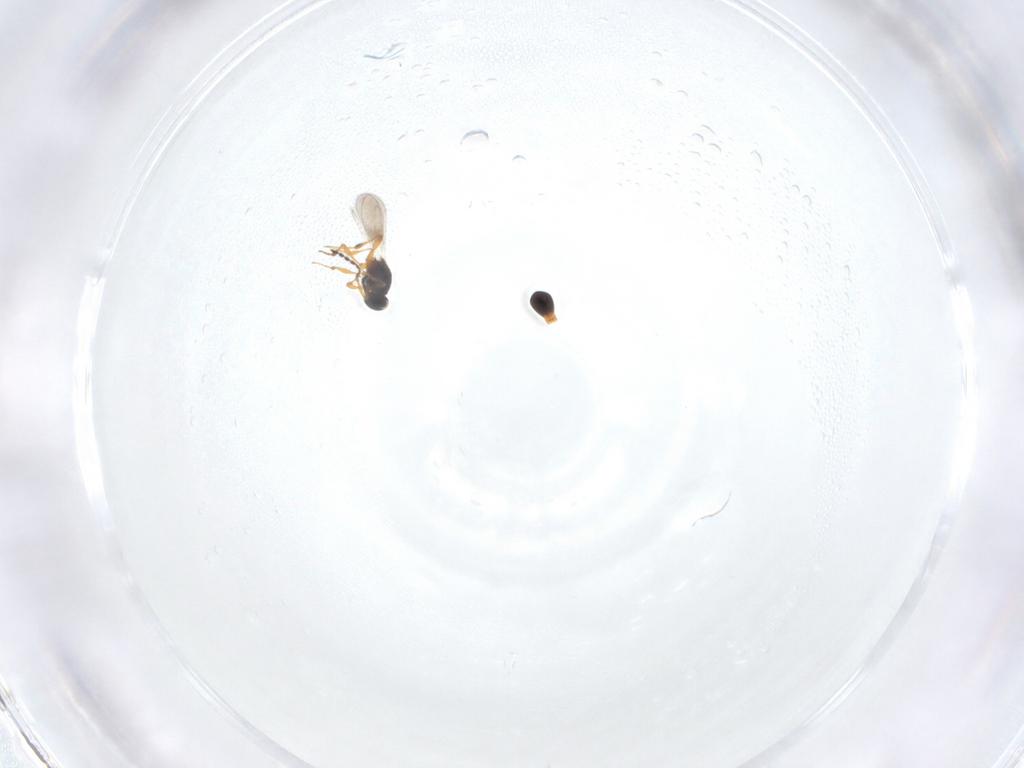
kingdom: Animalia
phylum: Arthropoda
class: Insecta
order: Hymenoptera
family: Platygastridae
